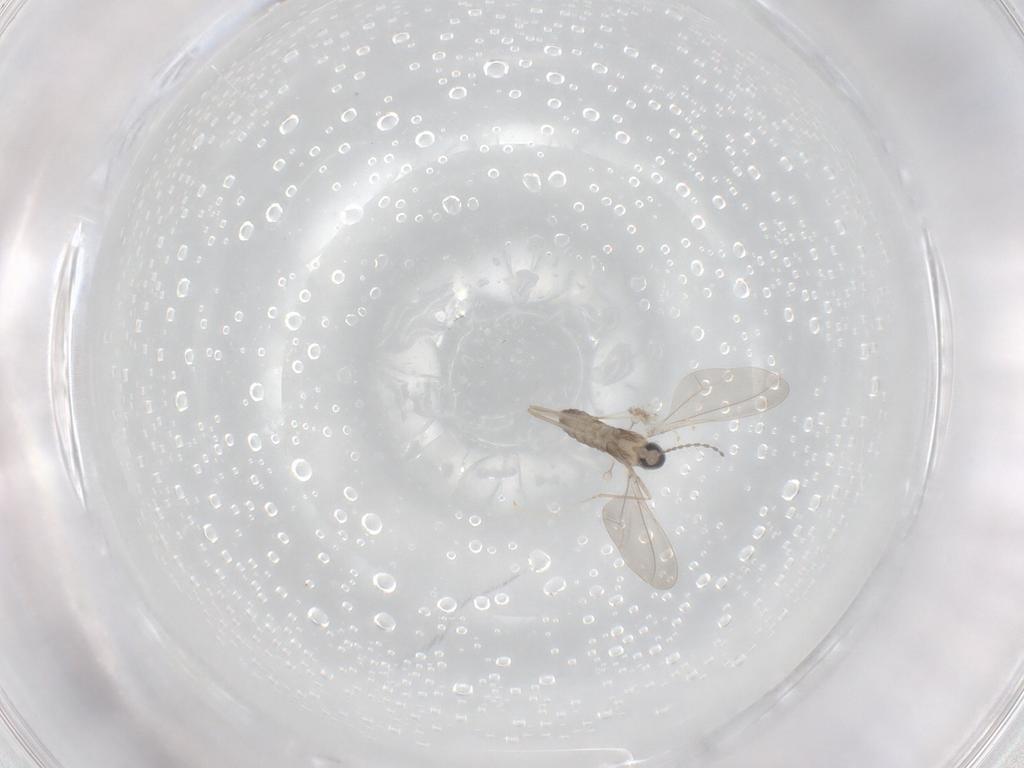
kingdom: Animalia
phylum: Arthropoda
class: Insecta
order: Diptera
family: Cecidomyiidae
